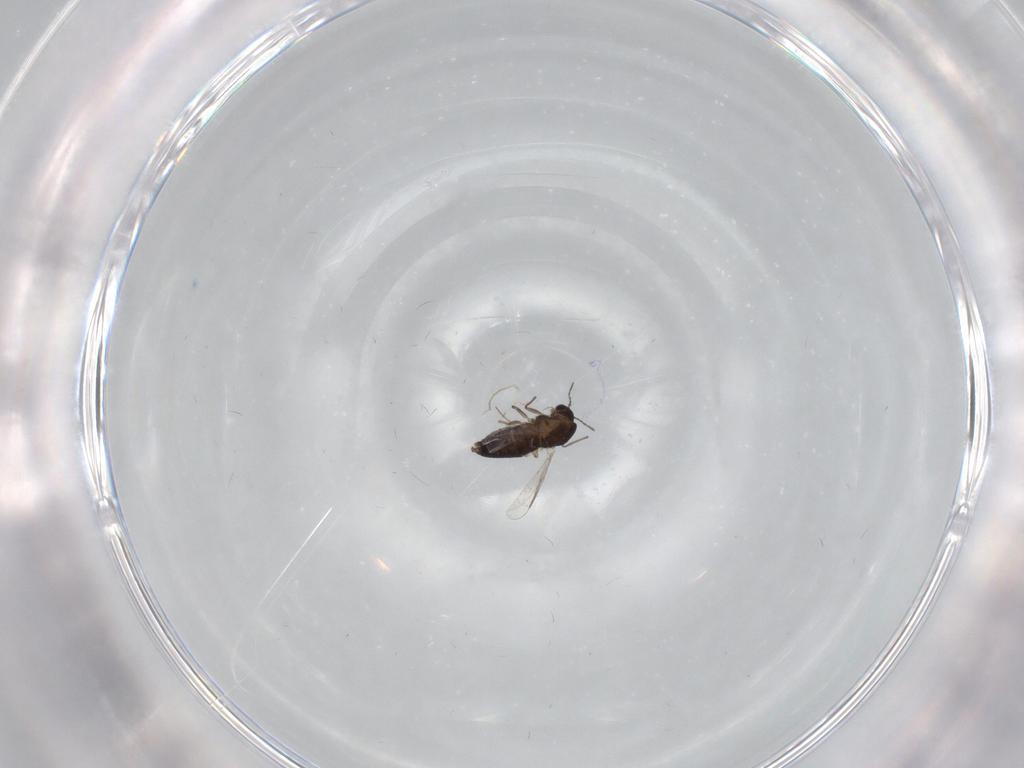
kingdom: Animalia
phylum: Arthropoda
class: Insecta
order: Diptera
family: Chironomidae
